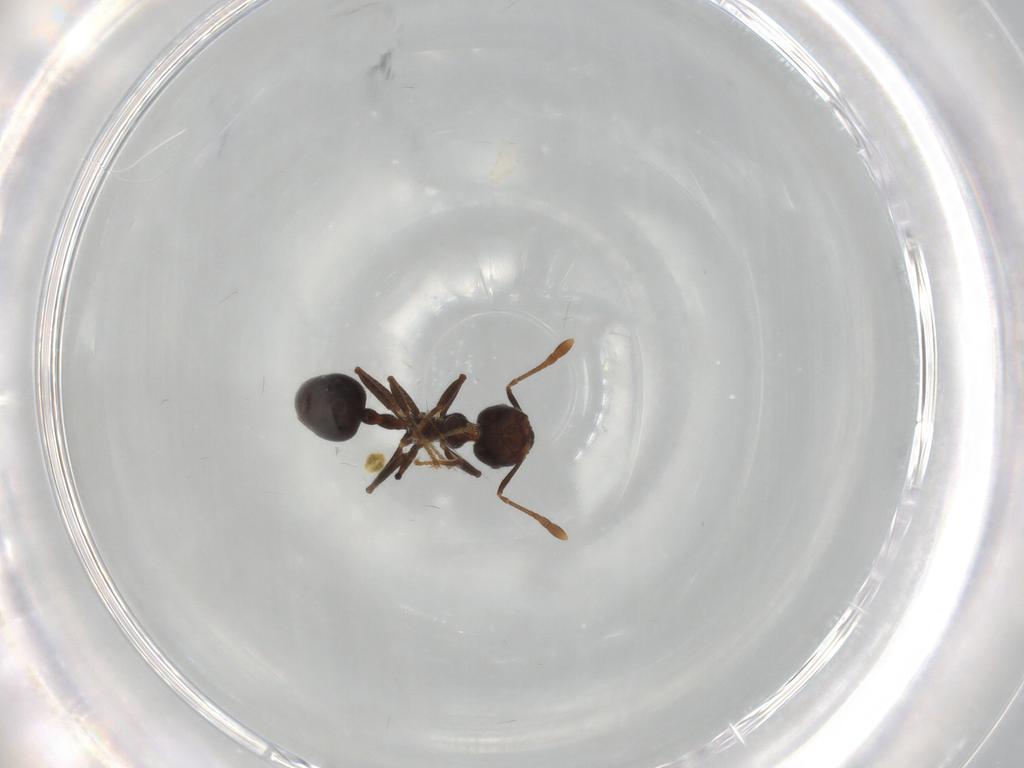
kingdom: Animalia
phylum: Arthropoda
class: Insecta
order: Hymenoptera
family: Formicidae
